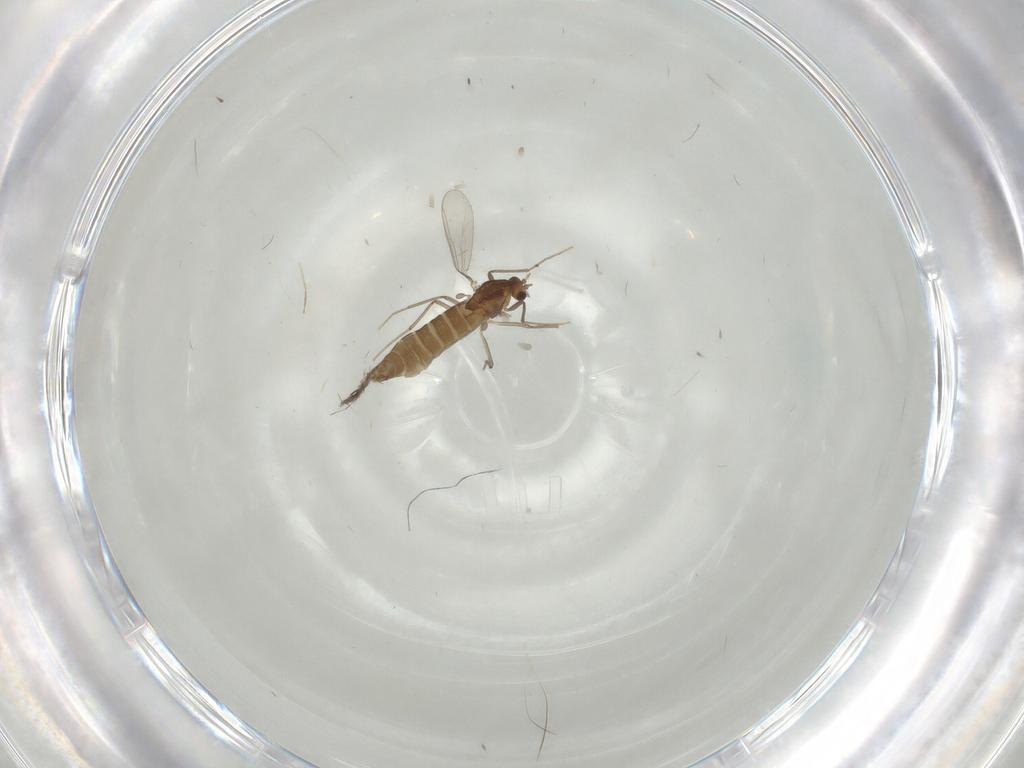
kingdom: Animalia
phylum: Arthropoda
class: Insecta
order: Diptera
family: Chironomidae
